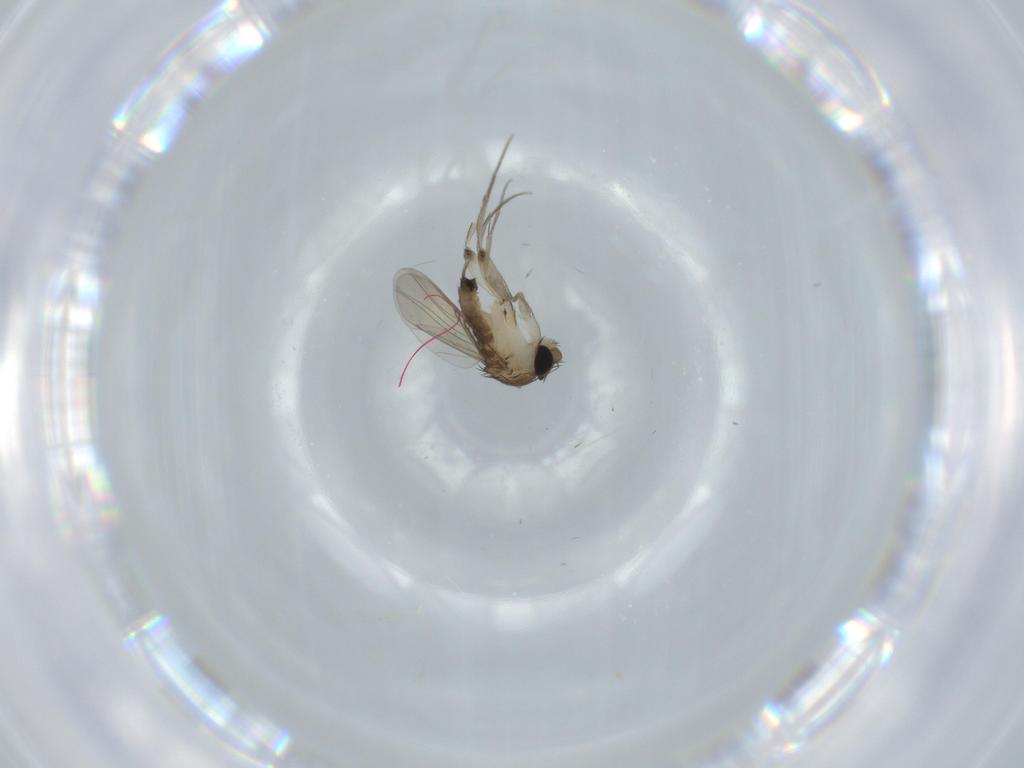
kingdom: Animalia
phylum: Arthropoda
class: Insecta
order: Diptera
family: Phoridae
